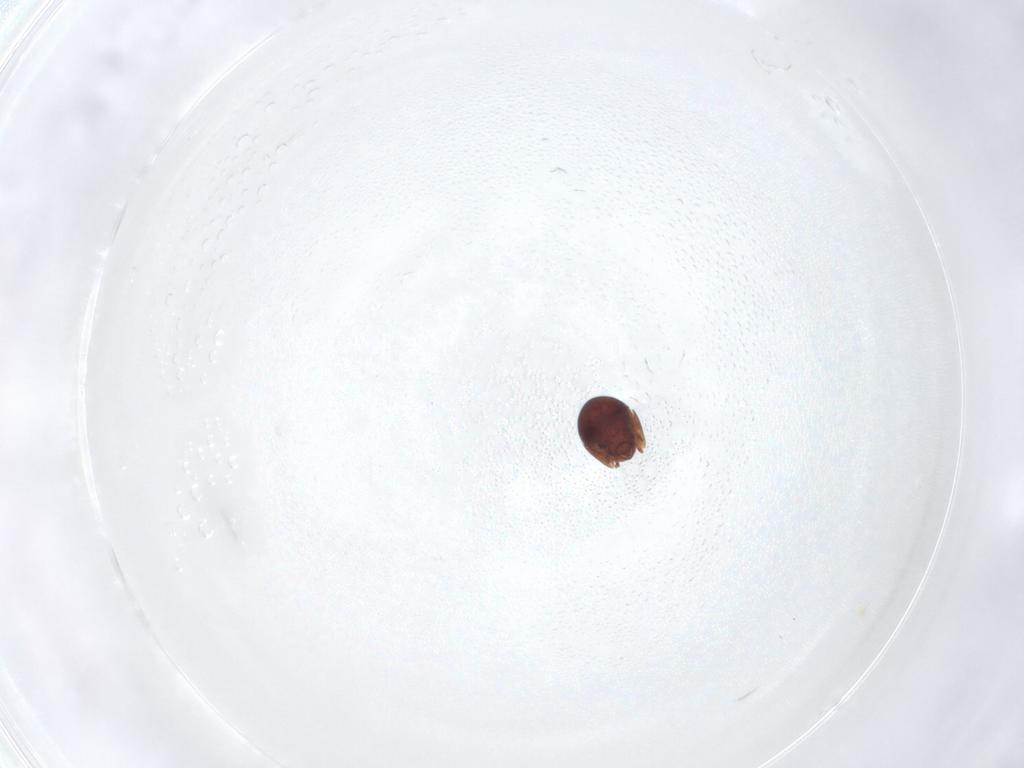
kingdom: Animalia
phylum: Arthropoda
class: Arachnida
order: Sarcoptiformes
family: Galumnidae
